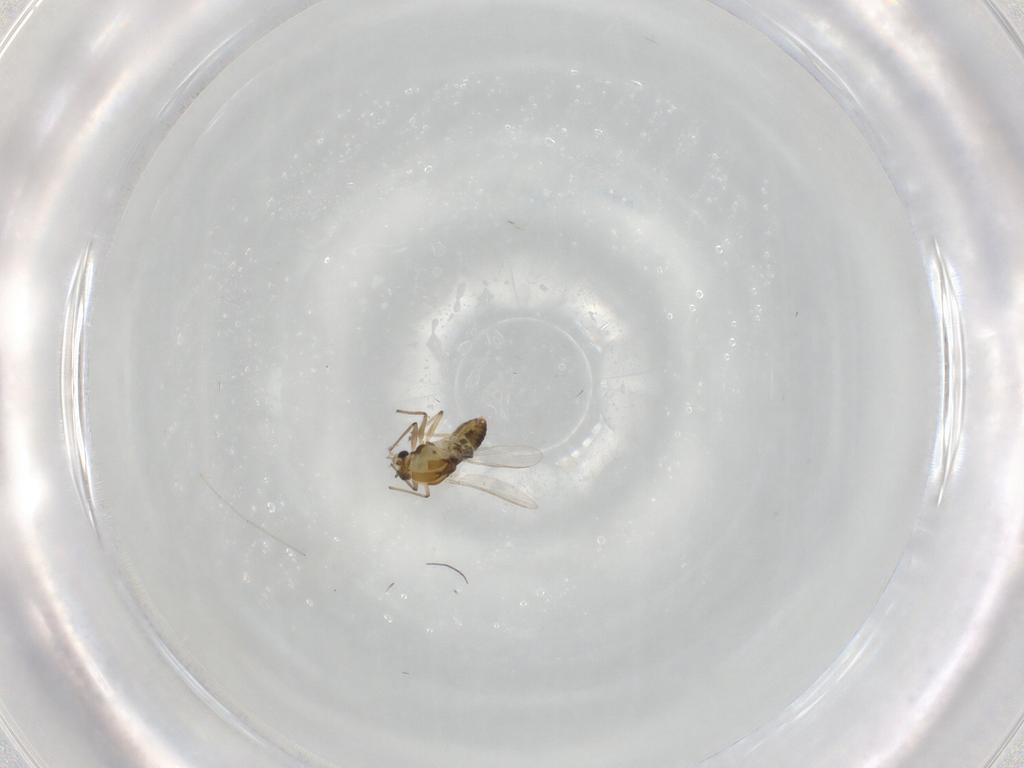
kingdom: Animalia
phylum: Arthropoda
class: Insecta
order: Diptera
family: Chironomidae
